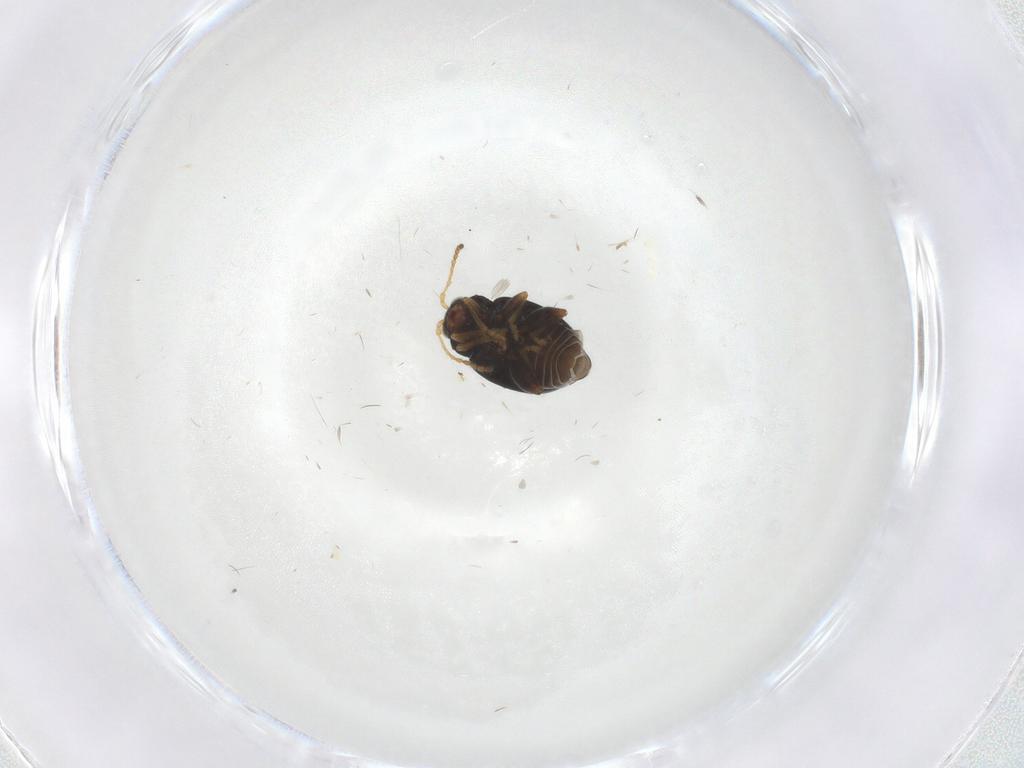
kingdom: Animalia
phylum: Arthropoda
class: Insecta
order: Coleoptera
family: Chrysomelidae
